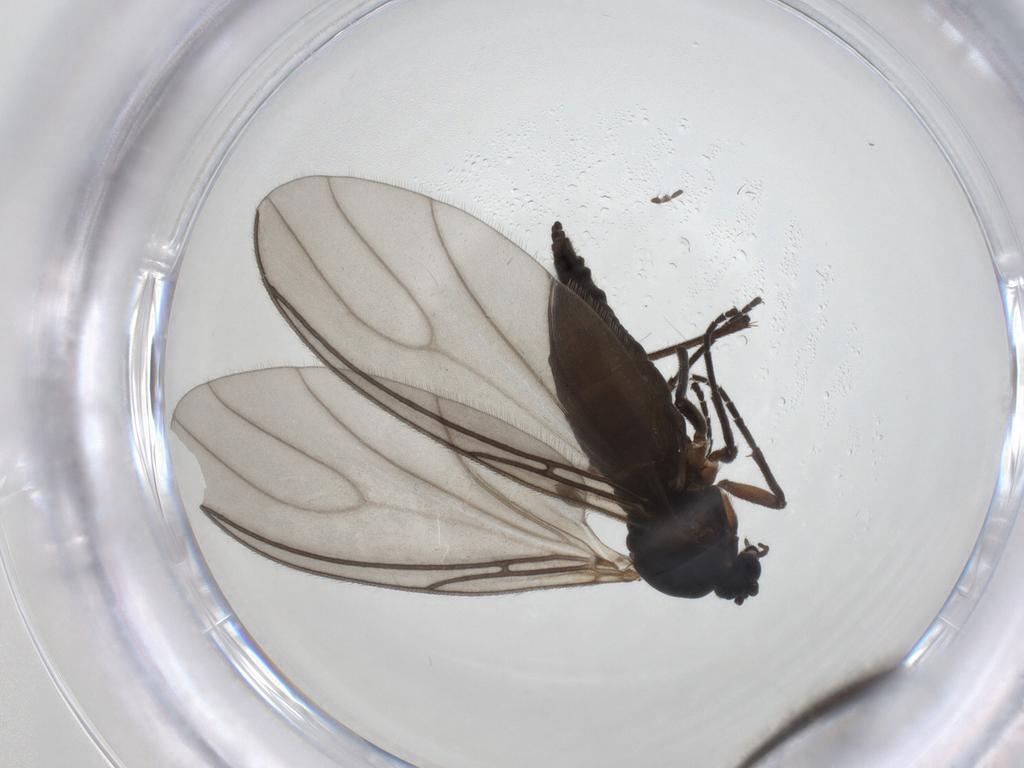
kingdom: Animalia
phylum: Arthropoda
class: Insecta
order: Diptera
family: Sciaridae
